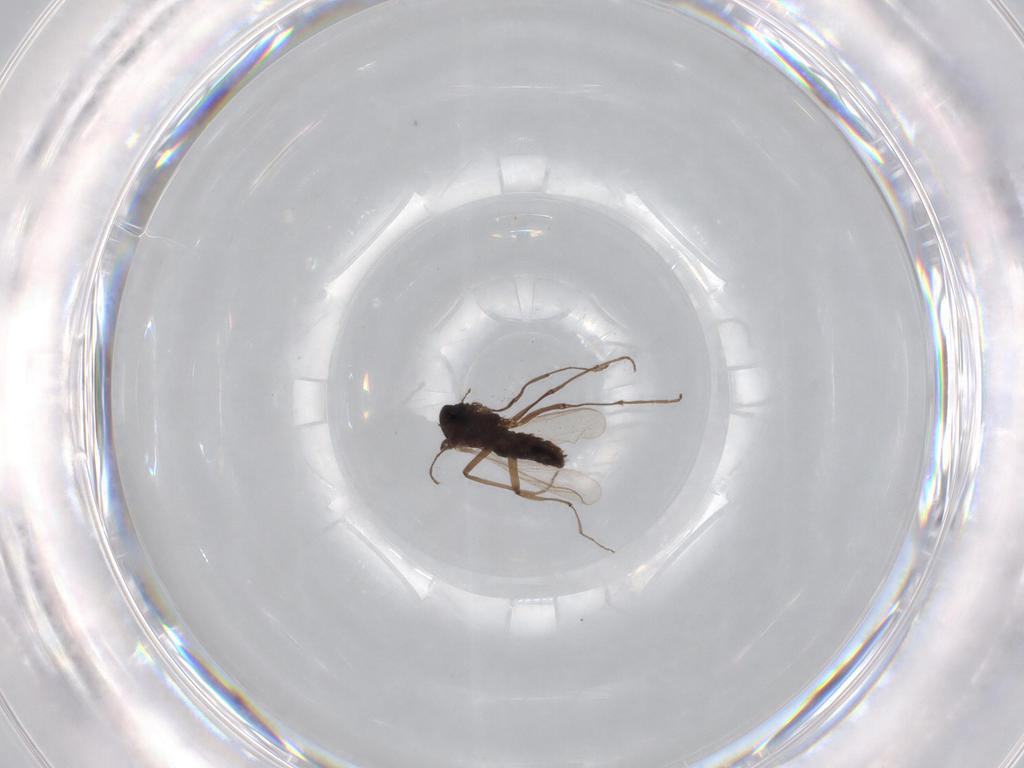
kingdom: Animalia
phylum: Arthropoda
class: Insecta
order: Diptera
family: Chironomidae
